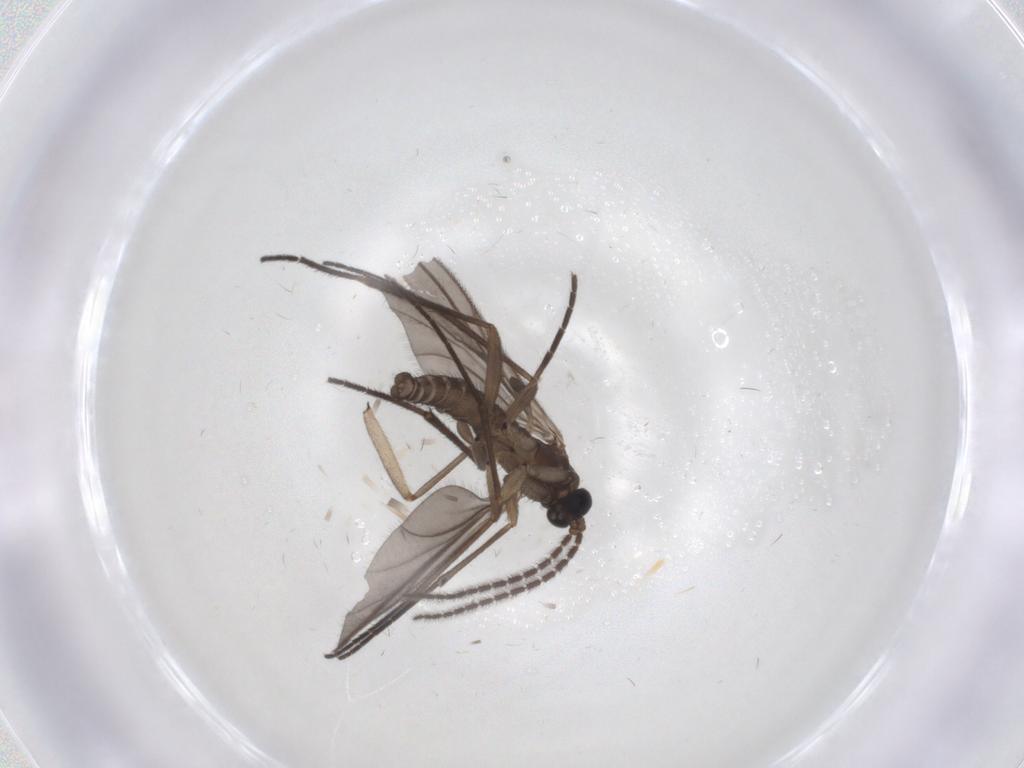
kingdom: Animalia
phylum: Arthropoda
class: Insecta
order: Diptera
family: Sciaridae
